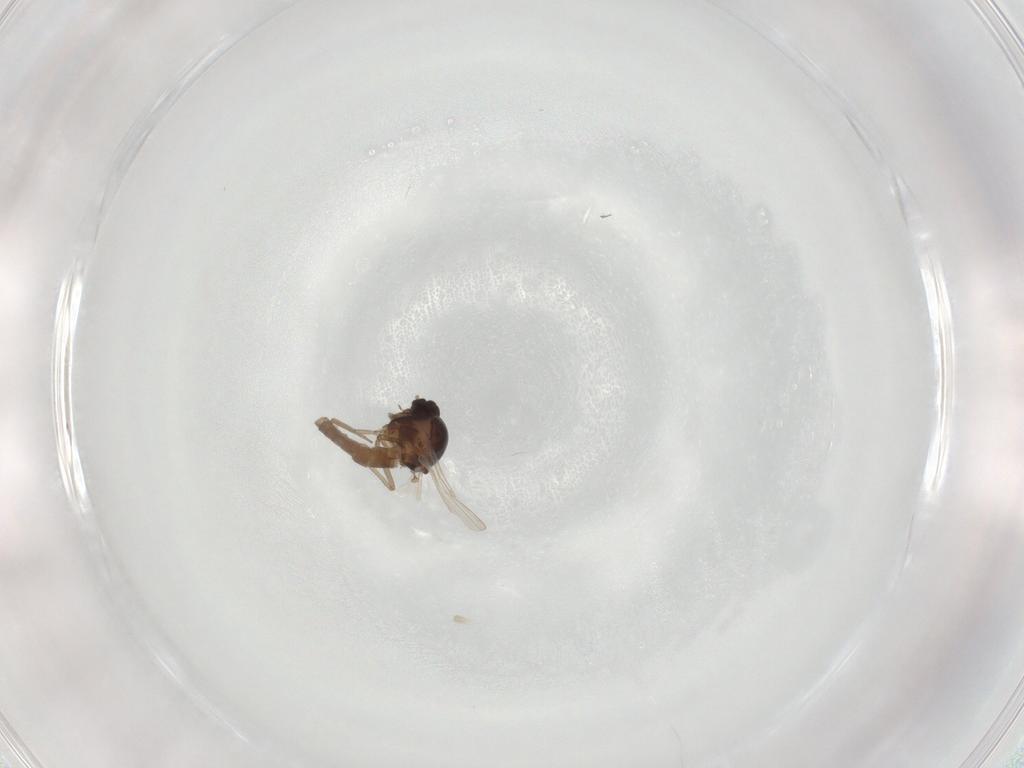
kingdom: Animalia
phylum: Arthropoda
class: Insecta
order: Diptera
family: Ceratopogonidae
